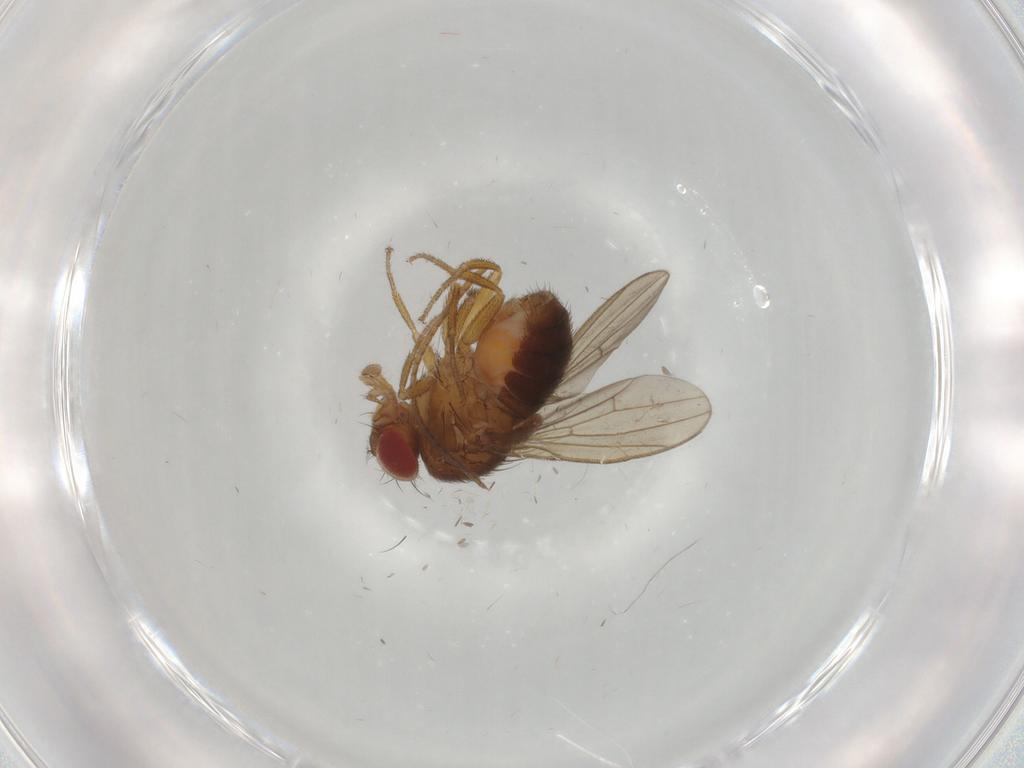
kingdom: Animalia
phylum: Arthropoda
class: Insecta
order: Diptera
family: Drosophilidae
